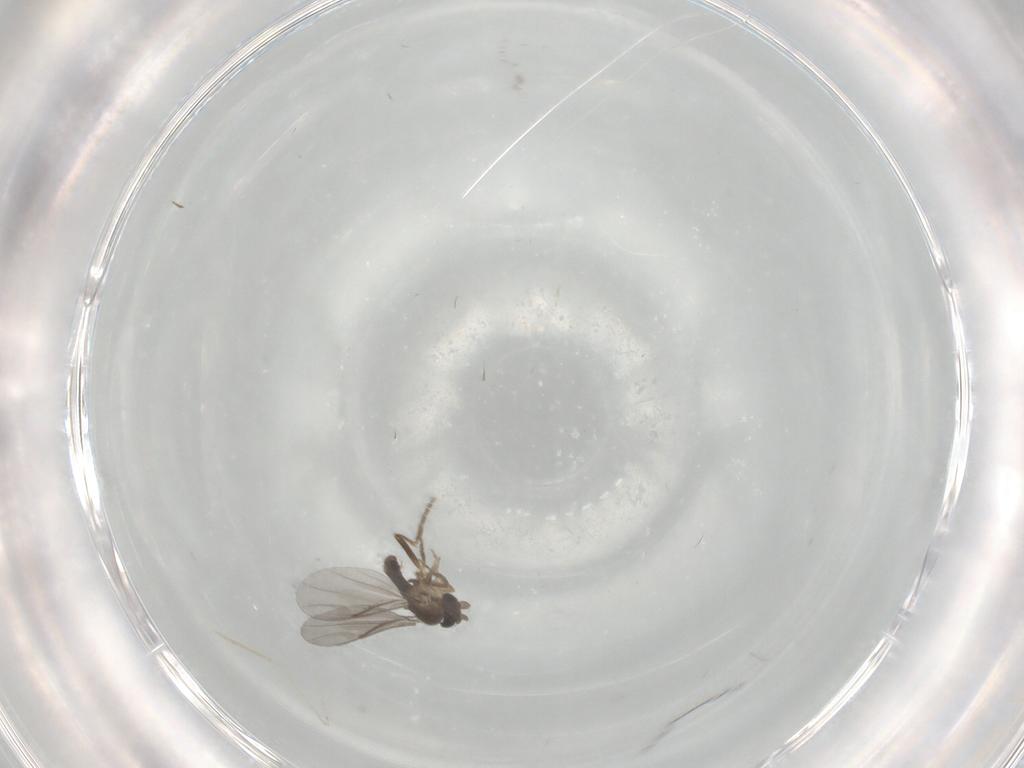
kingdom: Animalia
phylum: Arthropoda
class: Insecta
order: Diptera
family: Cecidomyiidae
